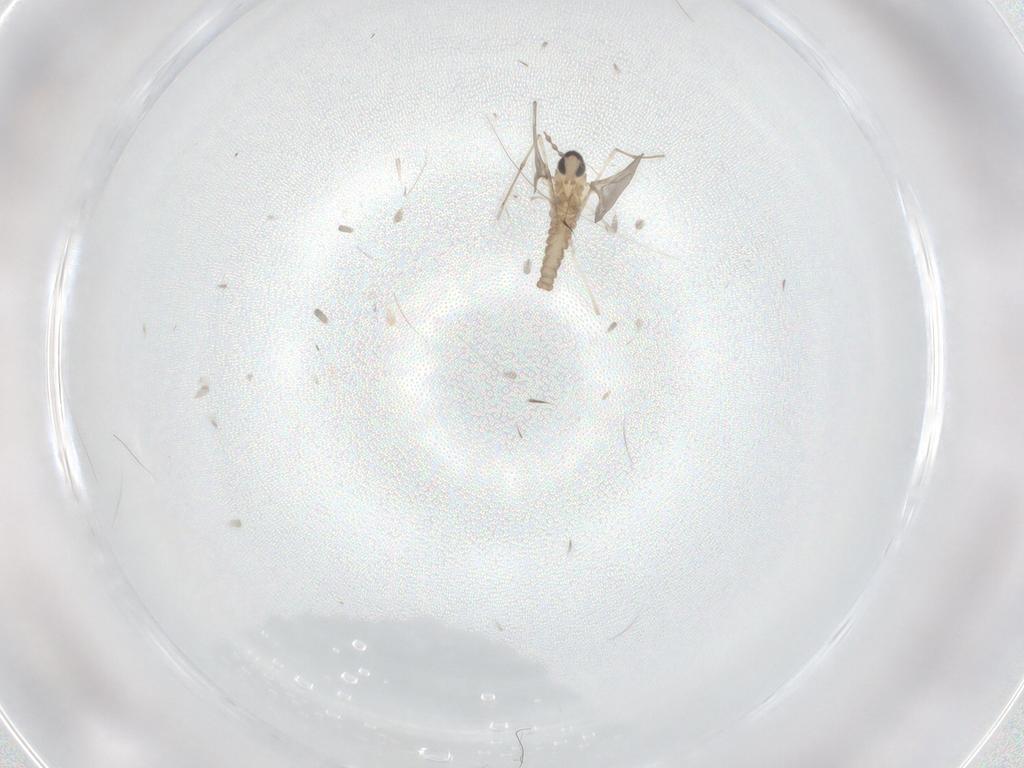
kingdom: Animalia
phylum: Arthropoda
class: Insecta
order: Diptera
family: Cecidomyiidae
